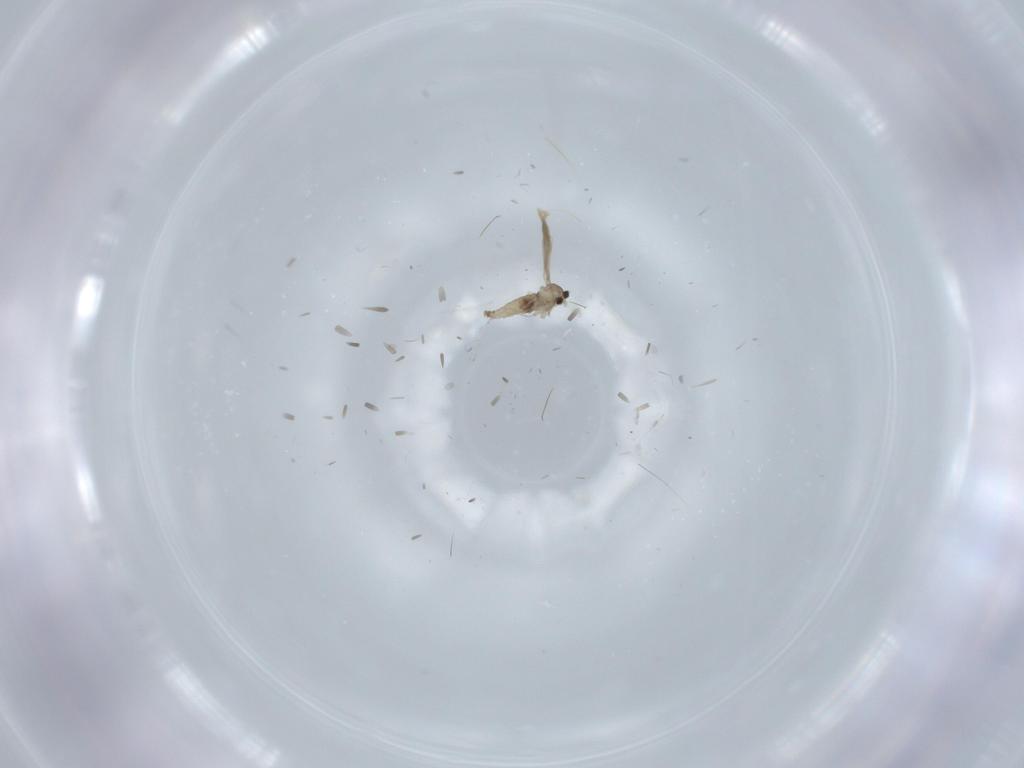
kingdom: Animalia
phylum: Arthropoda
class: Insecta
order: Diptera
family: Cecidomyiidae
